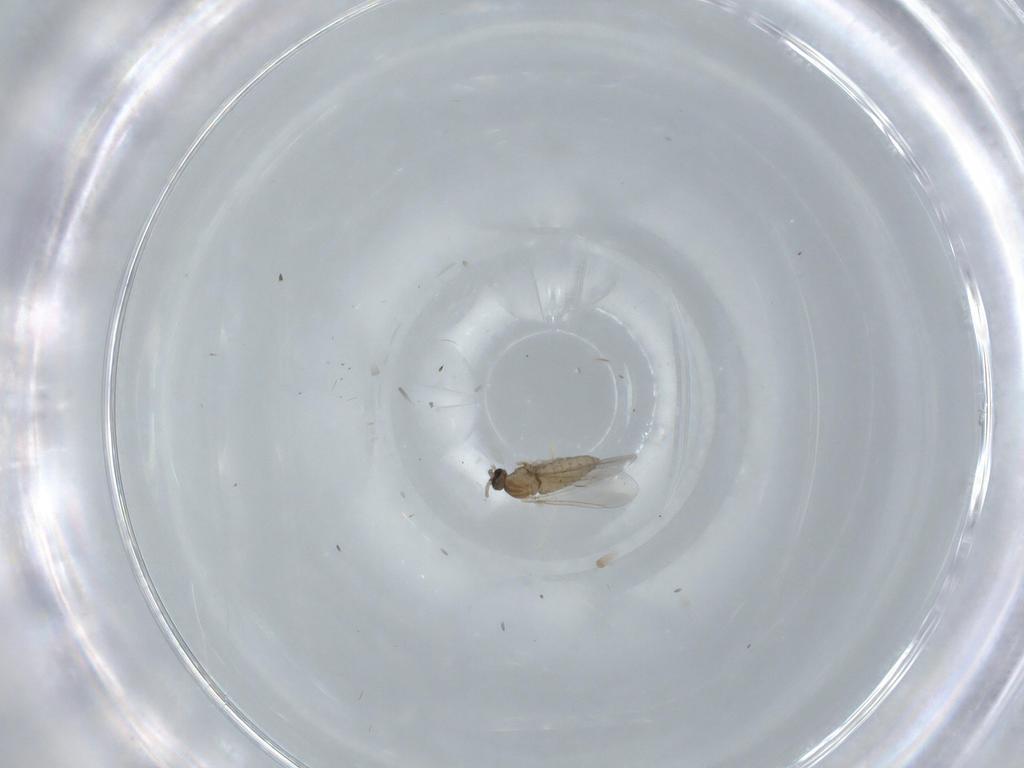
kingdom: Animalia
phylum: Arthropoda
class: Insecta
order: Diptera
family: Cecidomyiidae
